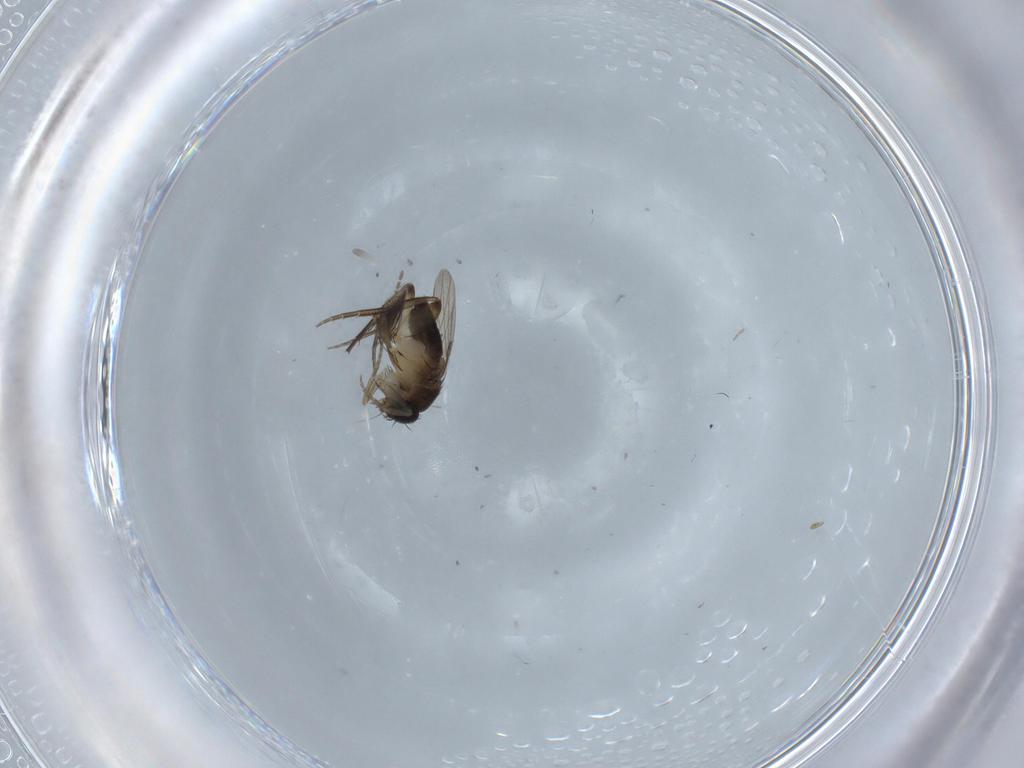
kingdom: Animalia
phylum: Arthropoda
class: Insecta
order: Diptera
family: Phoridae
